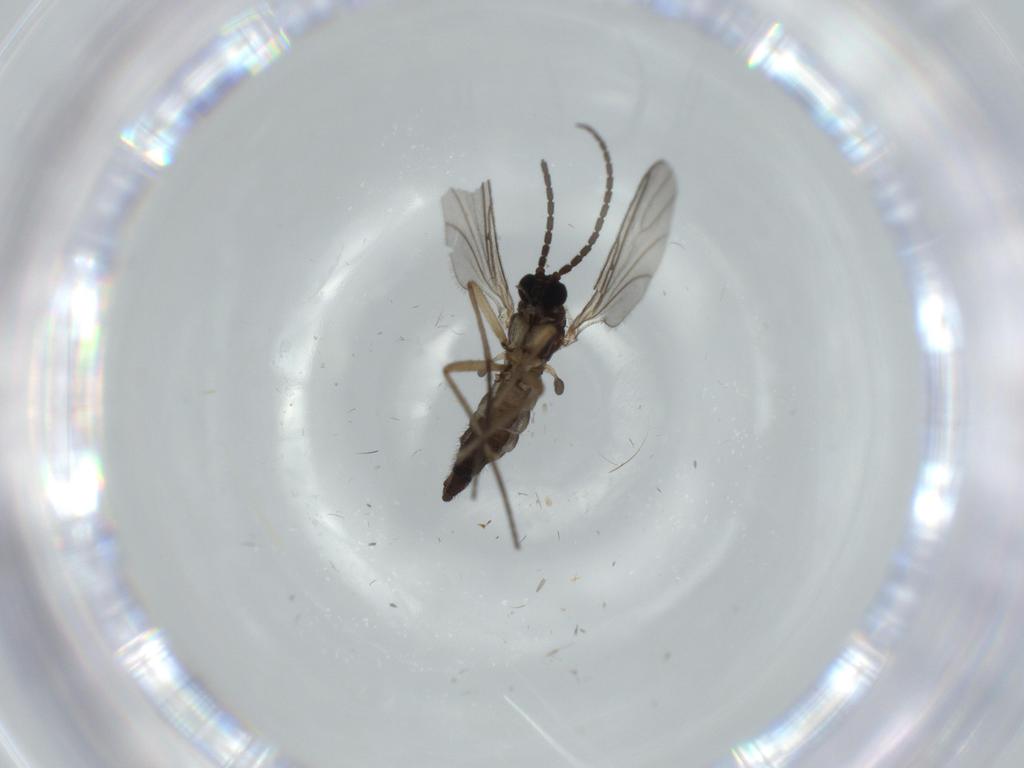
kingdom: Animalia
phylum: Arthropoda
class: Insecta
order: Diptera
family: Sciaridae
